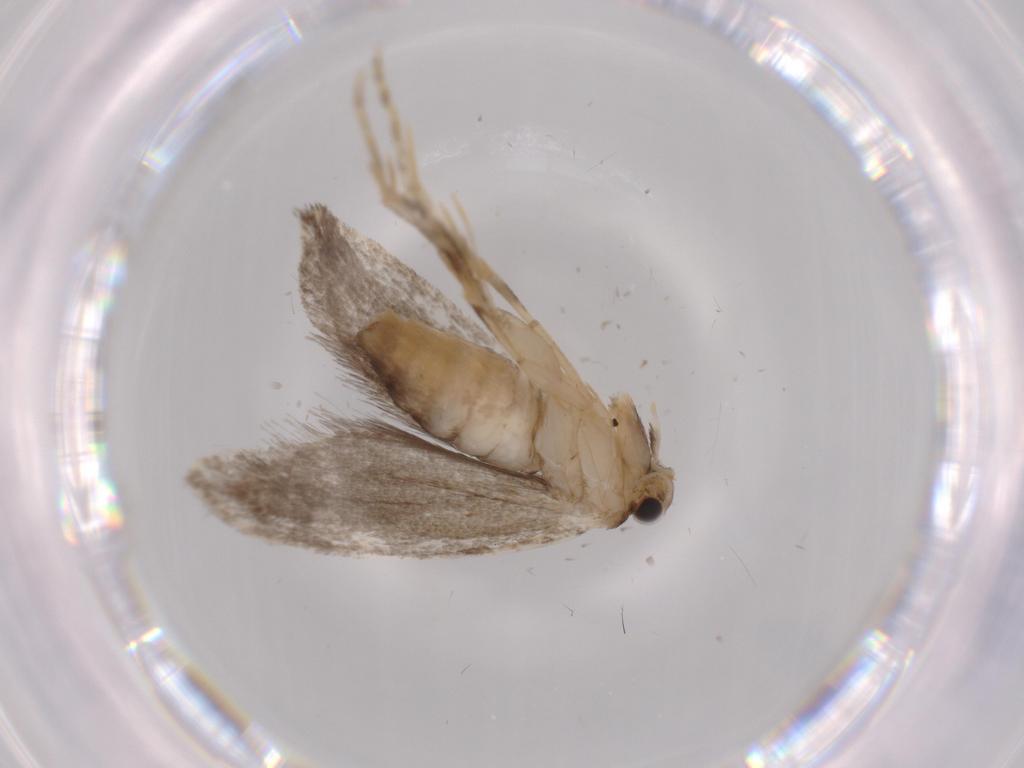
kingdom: Animalia
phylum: Arthropoda
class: Insecta
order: Lepidoptera
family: Tineidae
